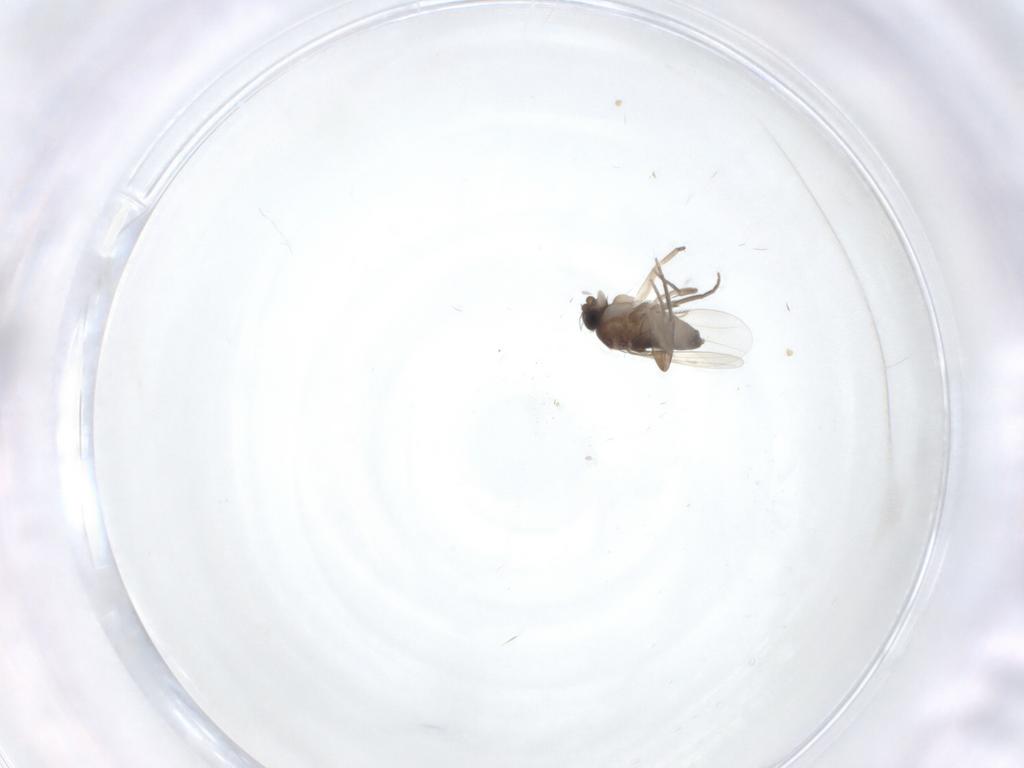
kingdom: Animalia
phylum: Arthropoda
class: Insecta
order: Diptera
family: Phoridae
